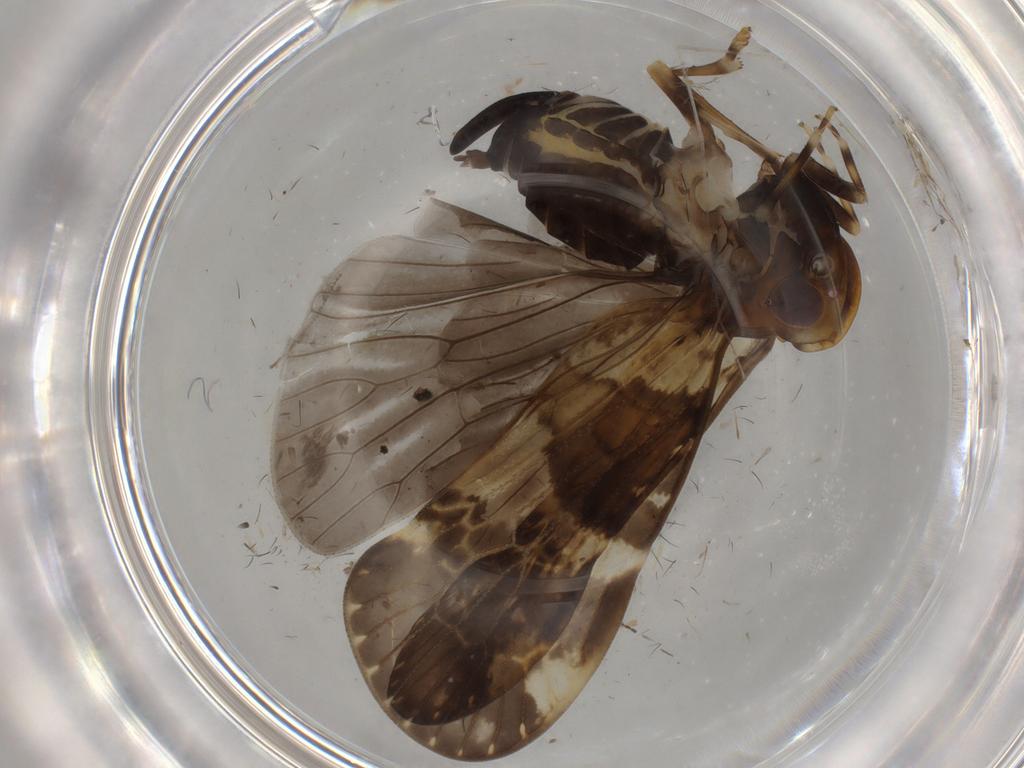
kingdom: Animalia
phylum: Arthropoda
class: Insecta
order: Hemiptera
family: Cixiidae
